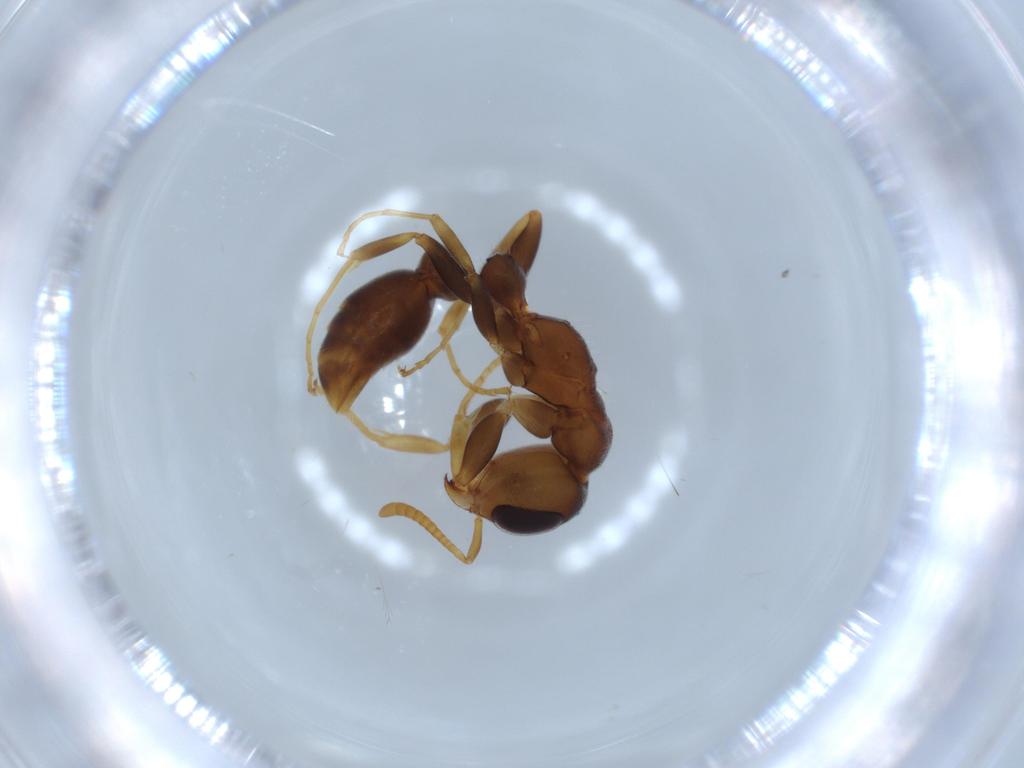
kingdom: Animalia
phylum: Arthropoda
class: Insecta
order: Hymenoptera
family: Formicidae
